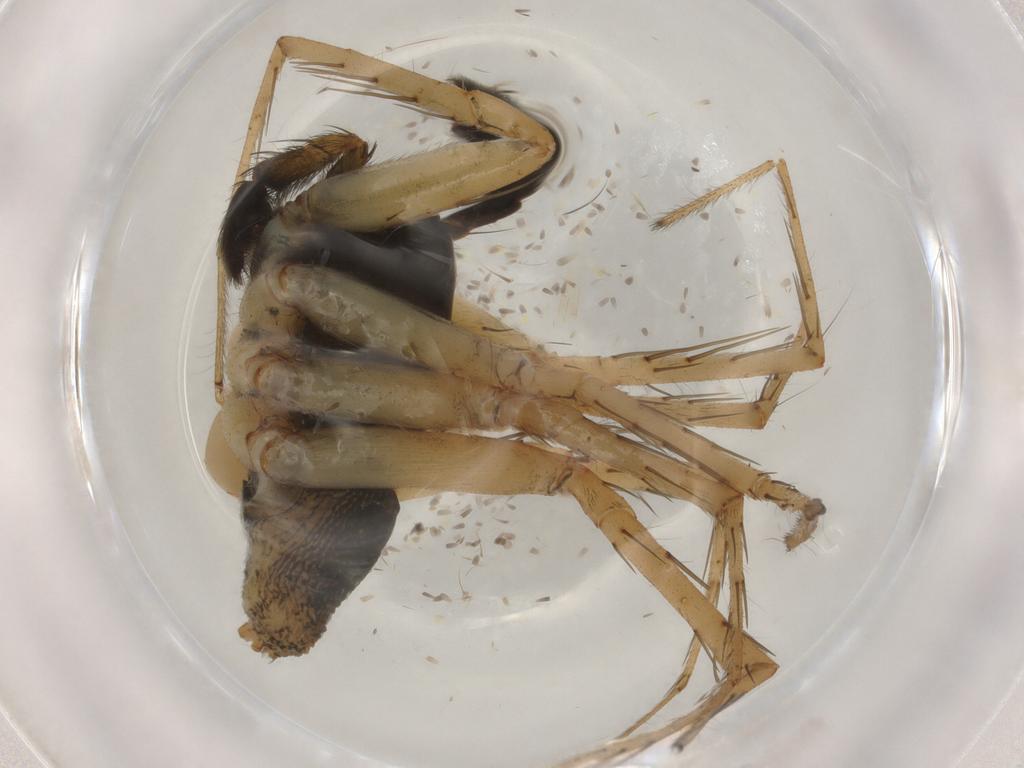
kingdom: Animalia
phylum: Arthropoda
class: Arachnida
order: Araneae
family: Lycosidae
